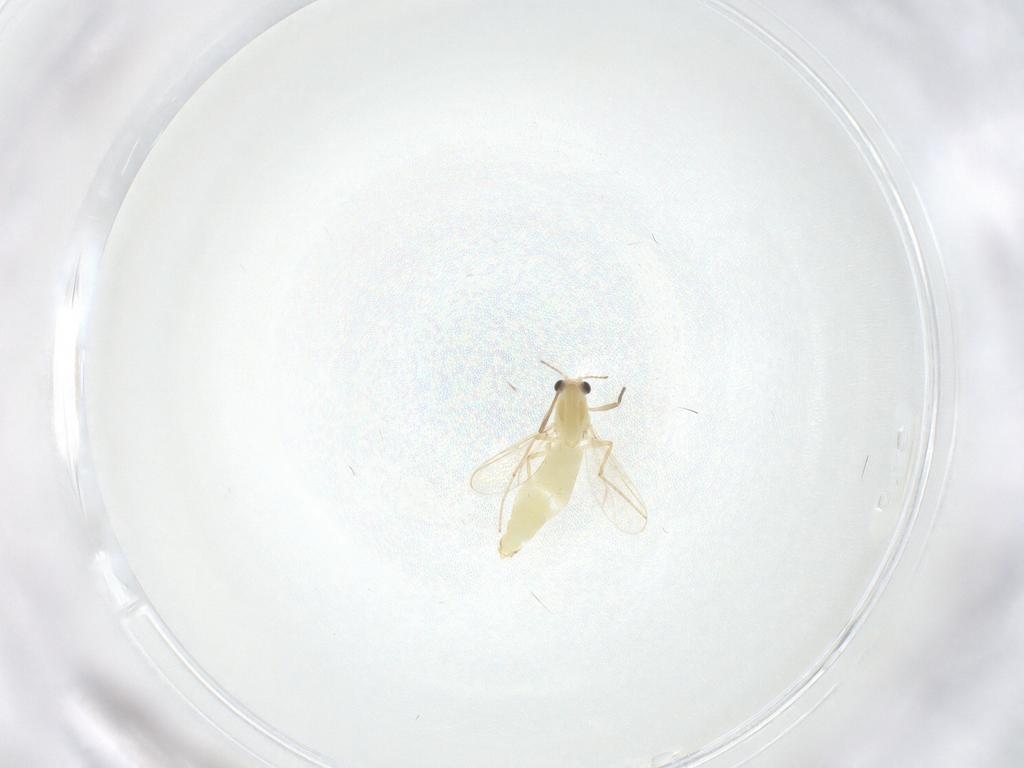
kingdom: Animalia
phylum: Arthropoda
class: Insecta
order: Diptera
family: Chironomidae
